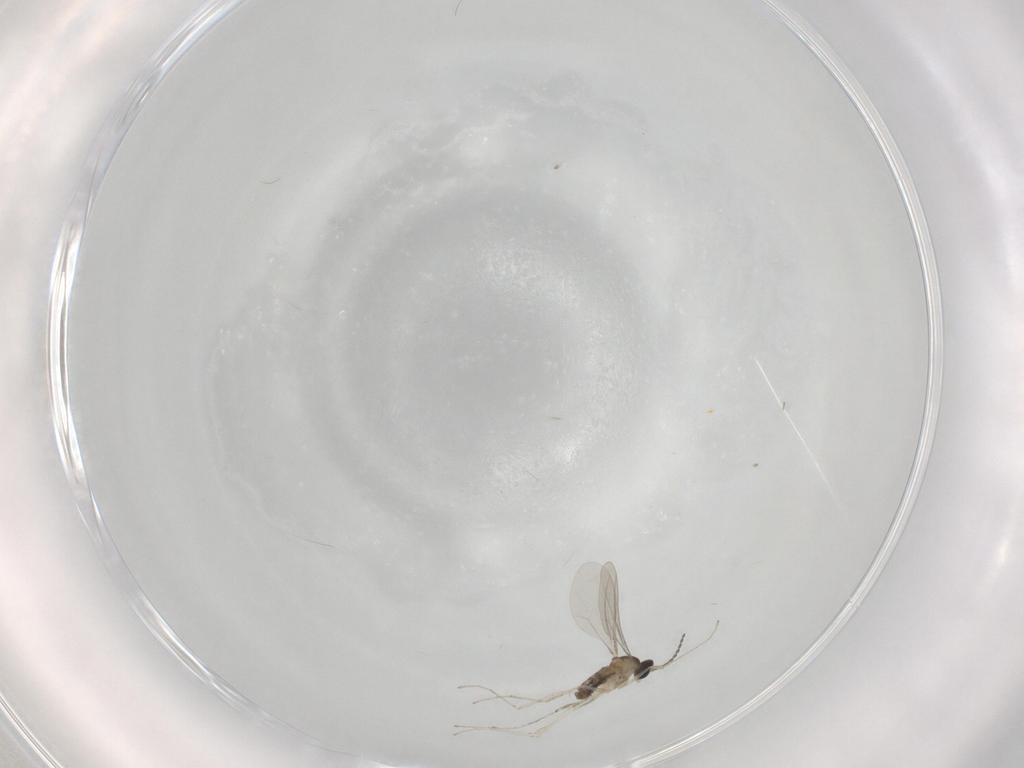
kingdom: Animalia
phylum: Arthropoda
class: Insecta
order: Diptera
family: Cecidomyiidae
